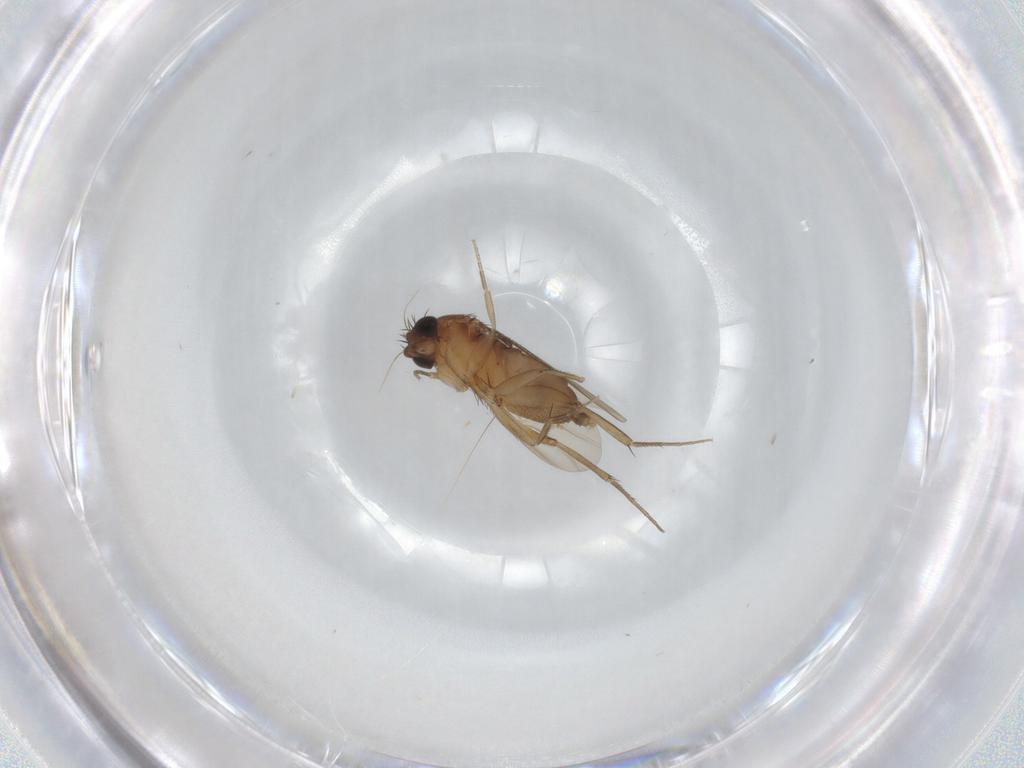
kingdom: Animalia
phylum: Arthropoda
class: Insecta
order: Diptera
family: Phoridae
